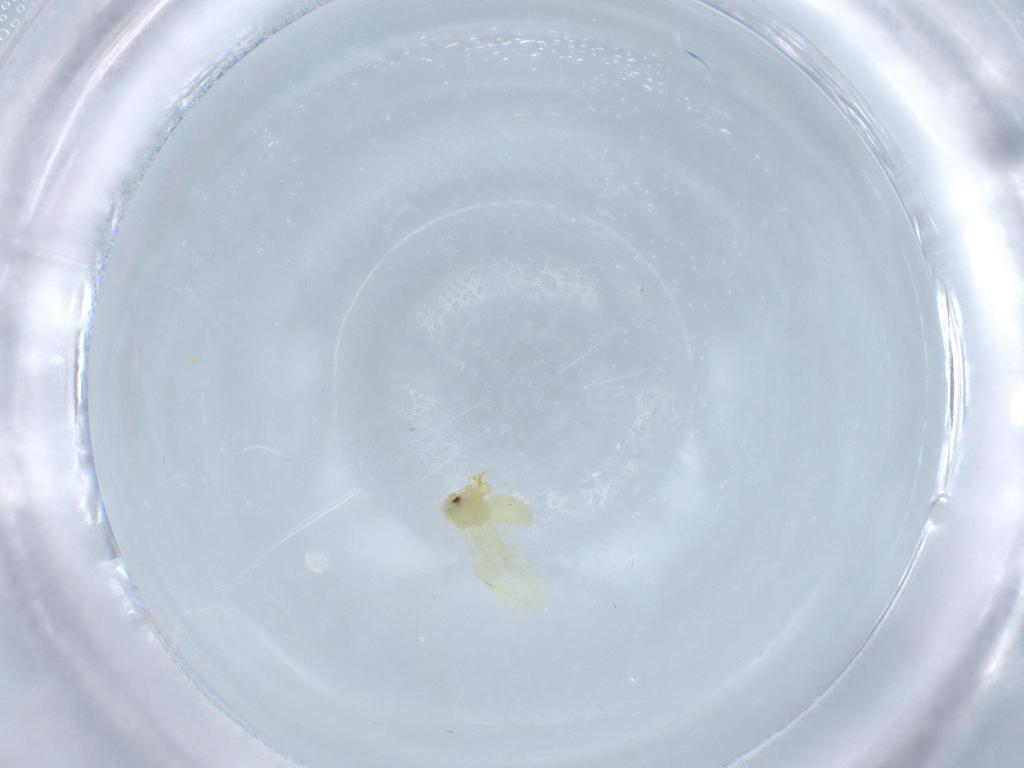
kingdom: Animalia
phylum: Arthropoda
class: Insecta
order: Hemiptera
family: Aleyrodidae
